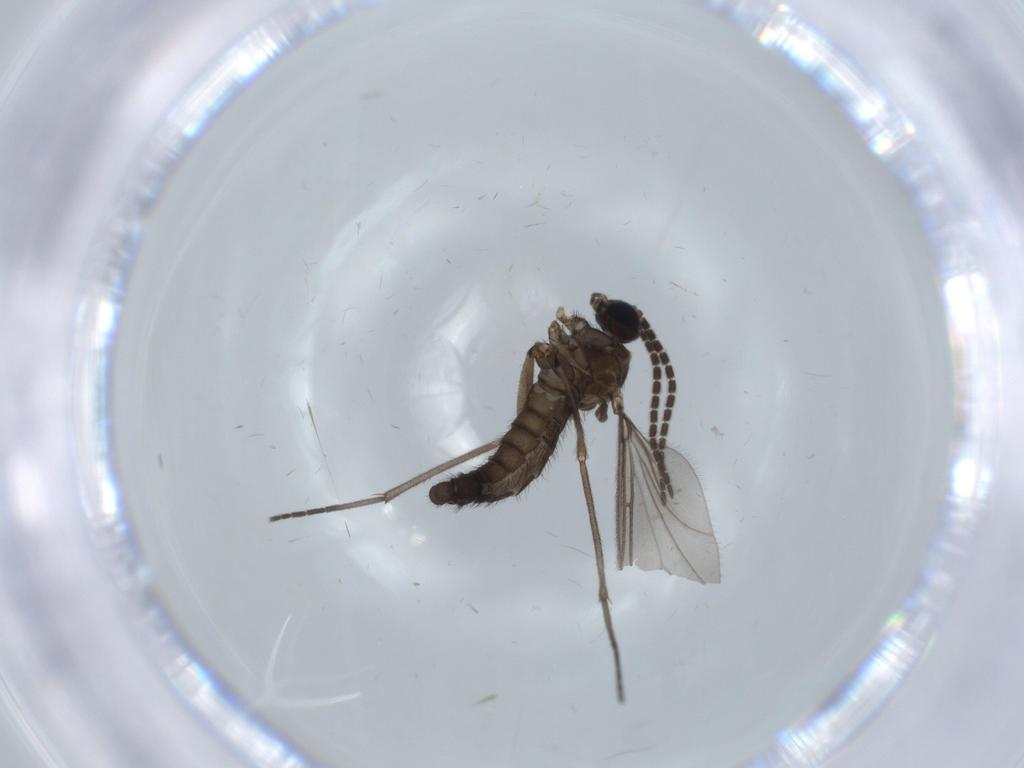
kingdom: Animalia
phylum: Arthropoda
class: Insecta
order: Diptera
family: Sciaridae
